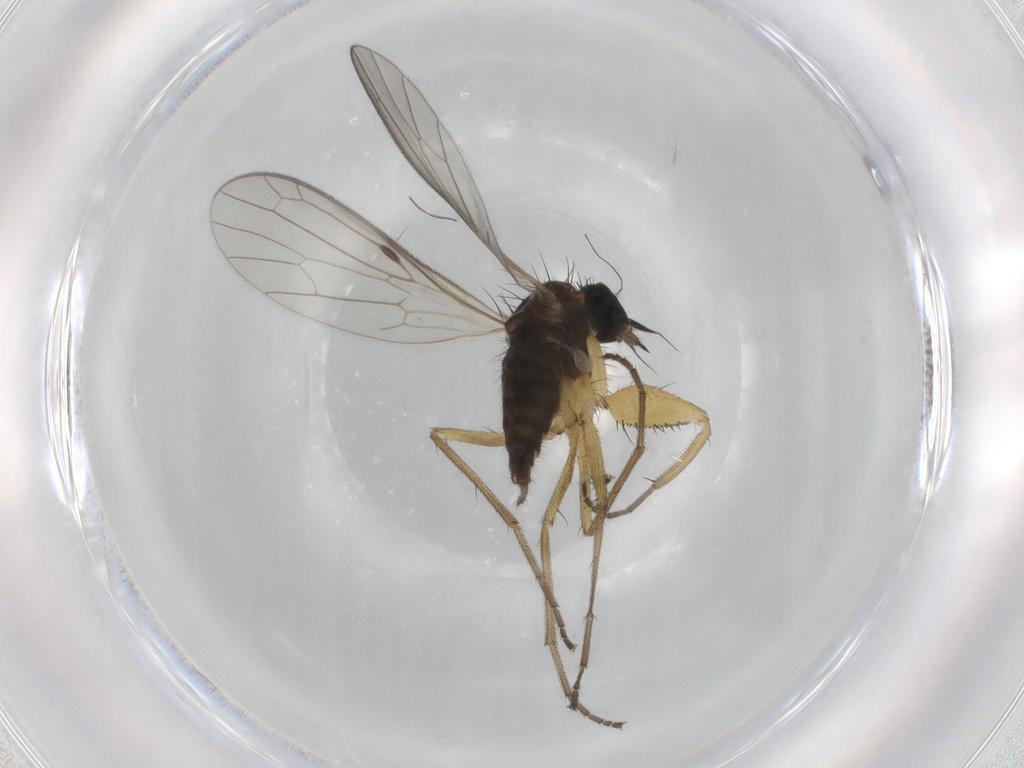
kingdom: Animalia
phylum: Arthropoda
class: Insecta
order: Diptera
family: Chironomidae
